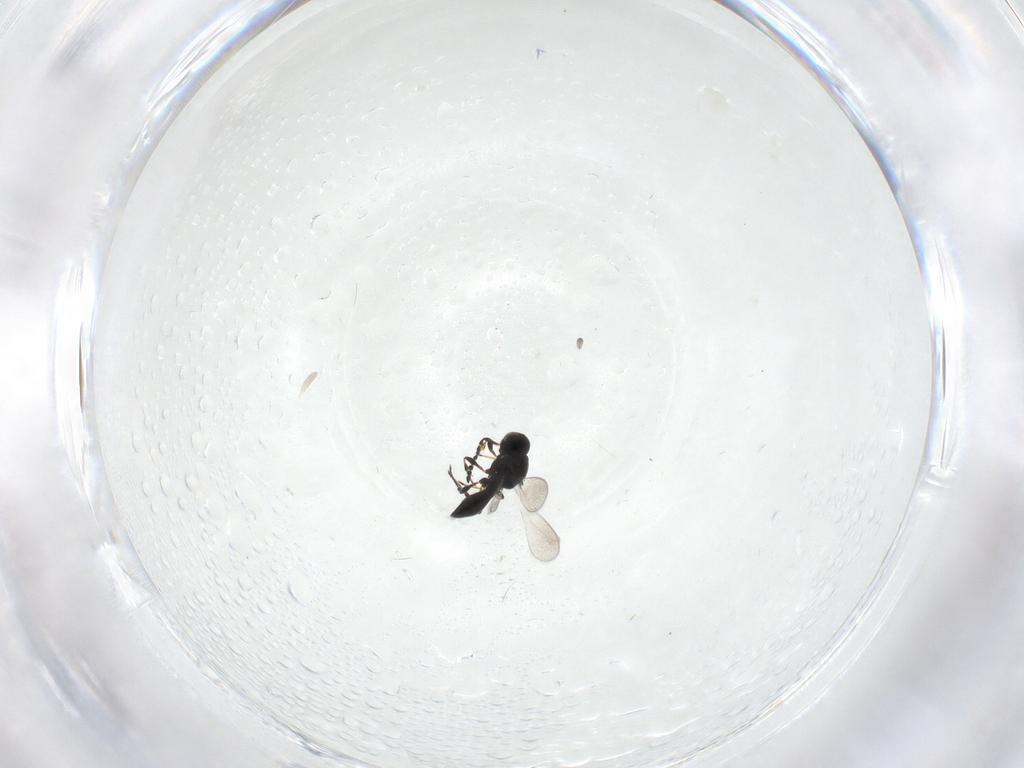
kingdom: Animalia
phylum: Arthropoda
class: Insecta
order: Hymenoptera
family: Platygastridae
